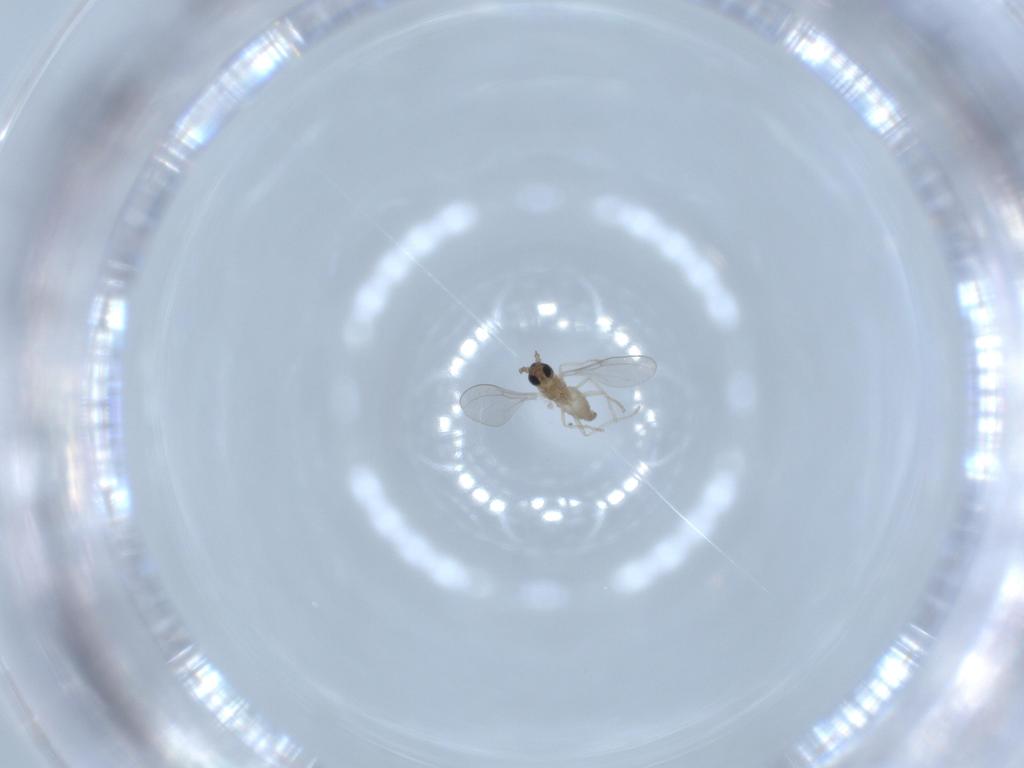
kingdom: Animalia
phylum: Arthropoda
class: Insecta
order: Diptera
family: Cecidomyiidae
